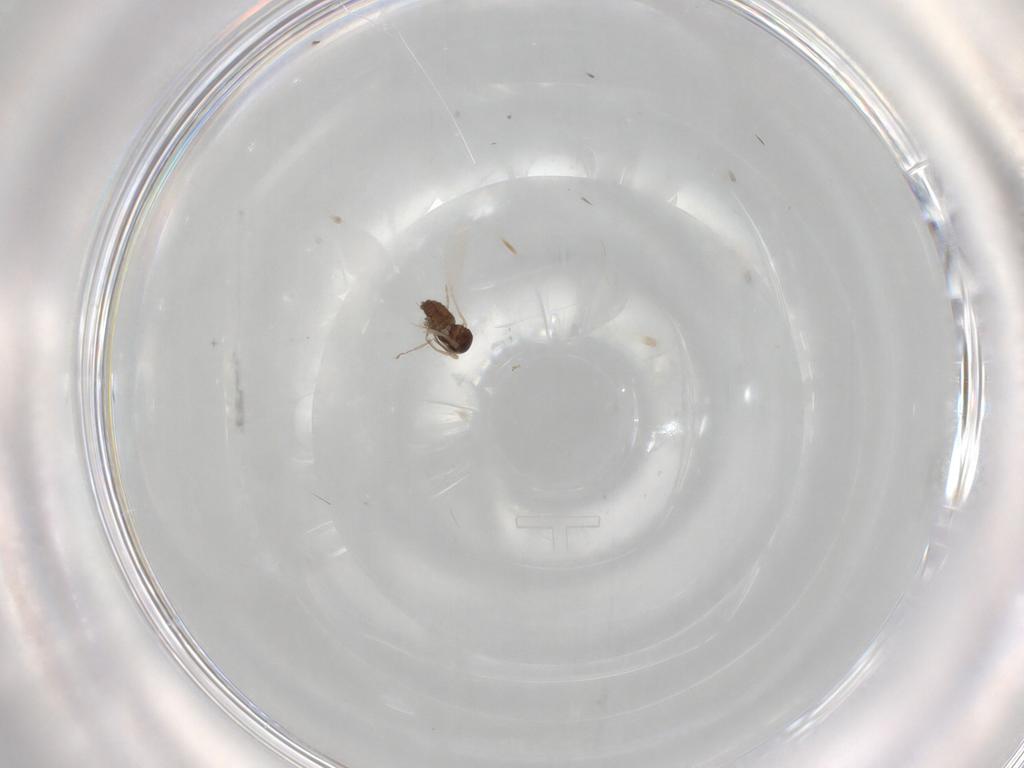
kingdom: Animalia
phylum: Arthropoda
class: Insecta
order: Diptera
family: Cecidomyiidae
